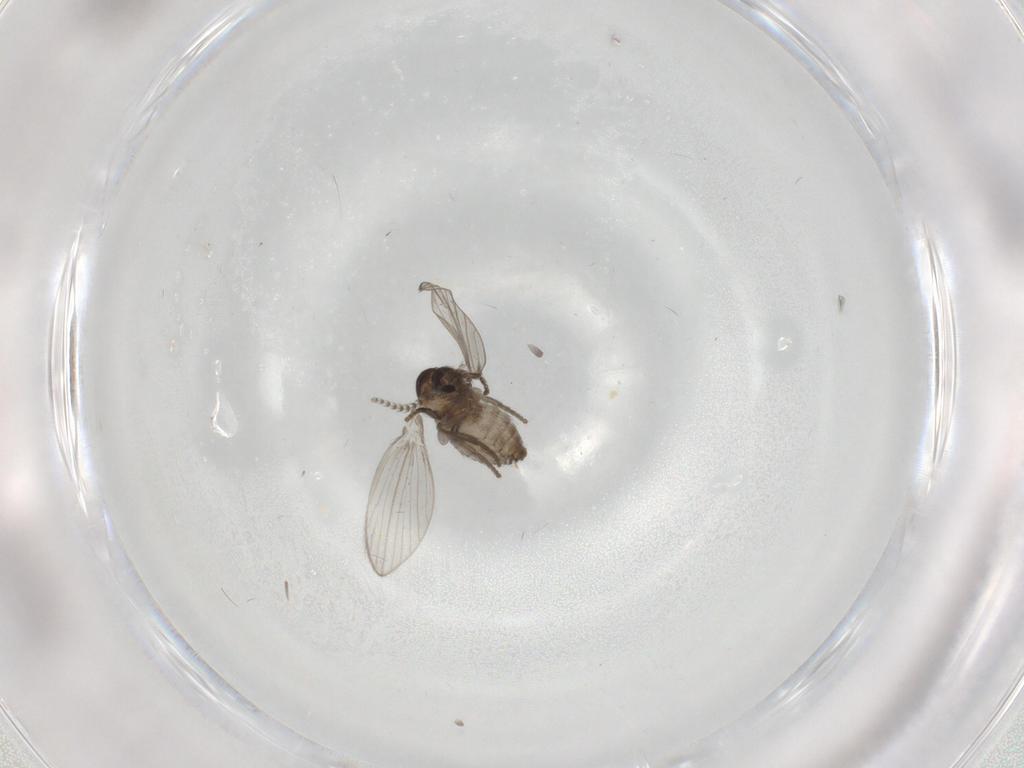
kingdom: Animalia
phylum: Arthropoda
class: Insecta
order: Diptera
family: Psychodidae
